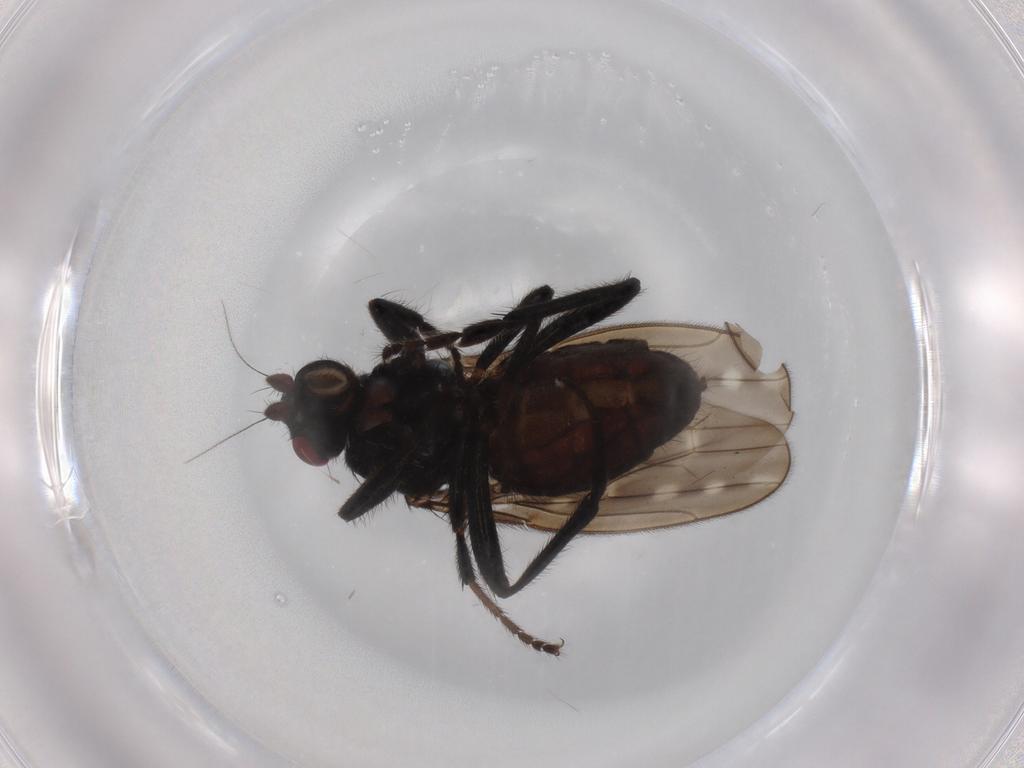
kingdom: Animalia
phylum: Arthropoda
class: Insecta
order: Diptera
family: Sphaeroceridae
